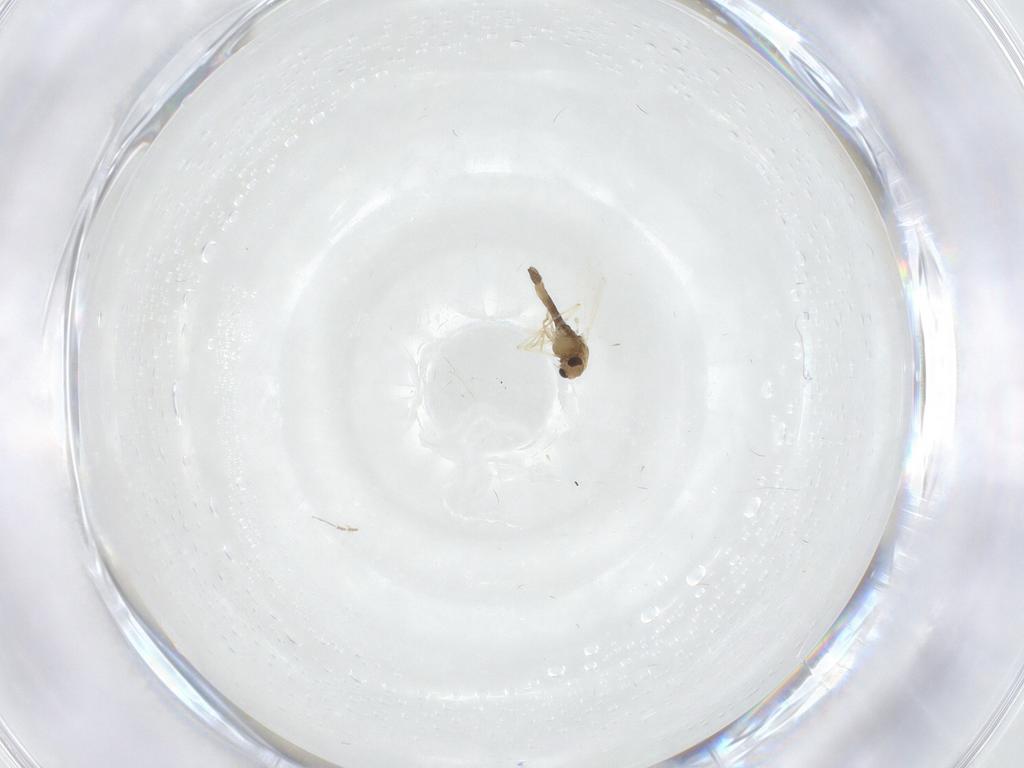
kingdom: Animalia
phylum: Arthropoda
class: Insecta
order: Diptera
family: Chironomidae
